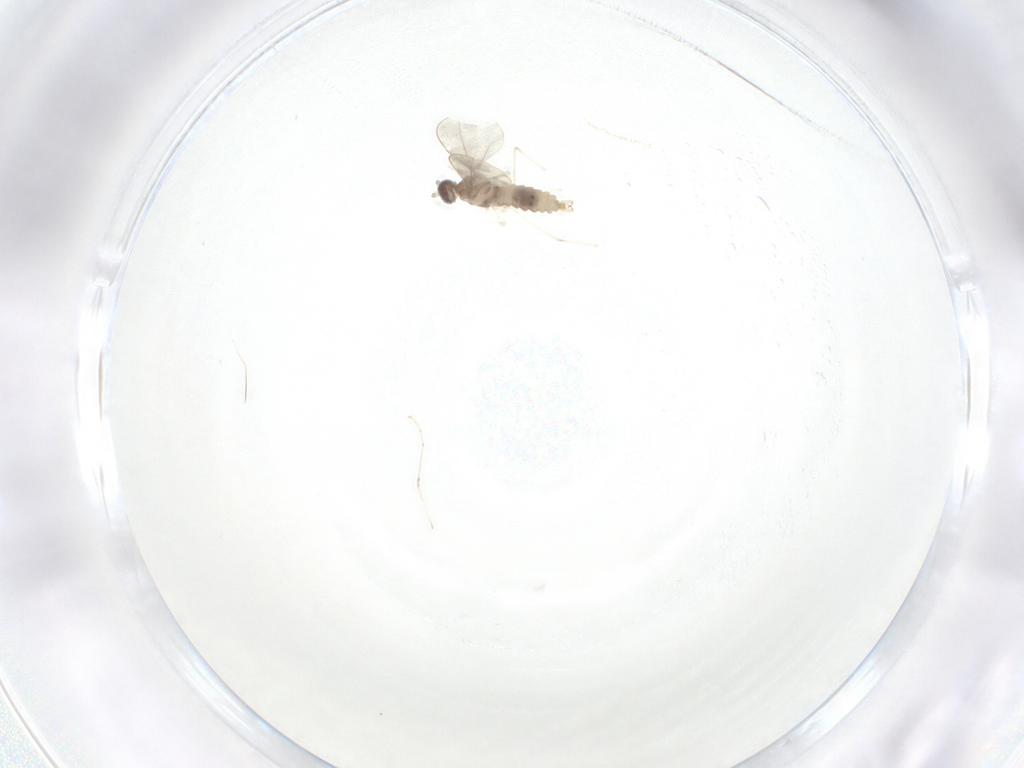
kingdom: Animalia
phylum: Arthropoda
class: Insecta
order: Diptera
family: Cecidomyiidae
